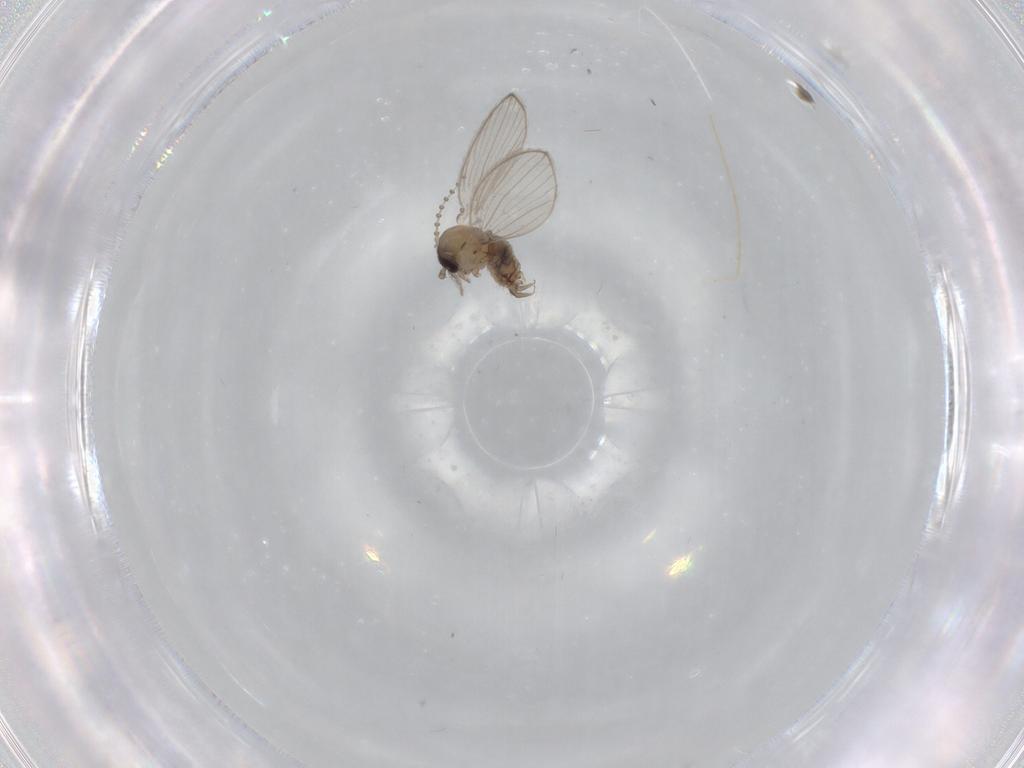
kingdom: Animalia
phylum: Arthropoda
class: Insecta
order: Diptera
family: Psychodidae
